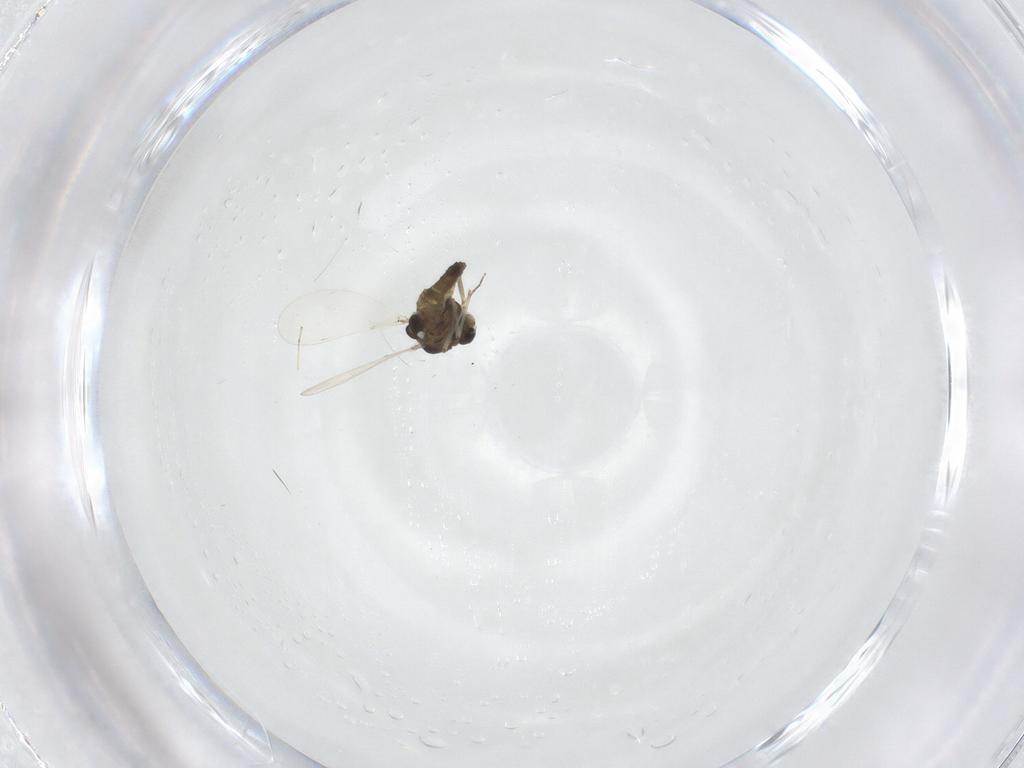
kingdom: Animalia
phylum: Arthropoda
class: Insecta
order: Diptera
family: Chironomidae
